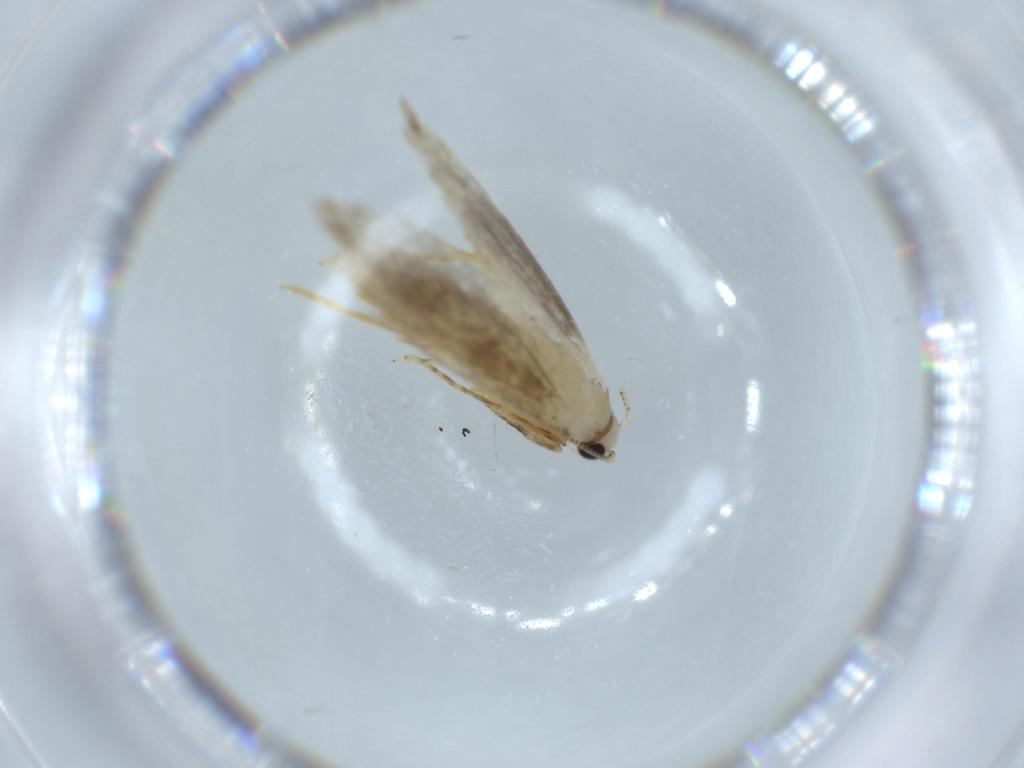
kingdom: Animalia
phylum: Arthropoda
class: Insecta
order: Lepidoptera
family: Tineidae
